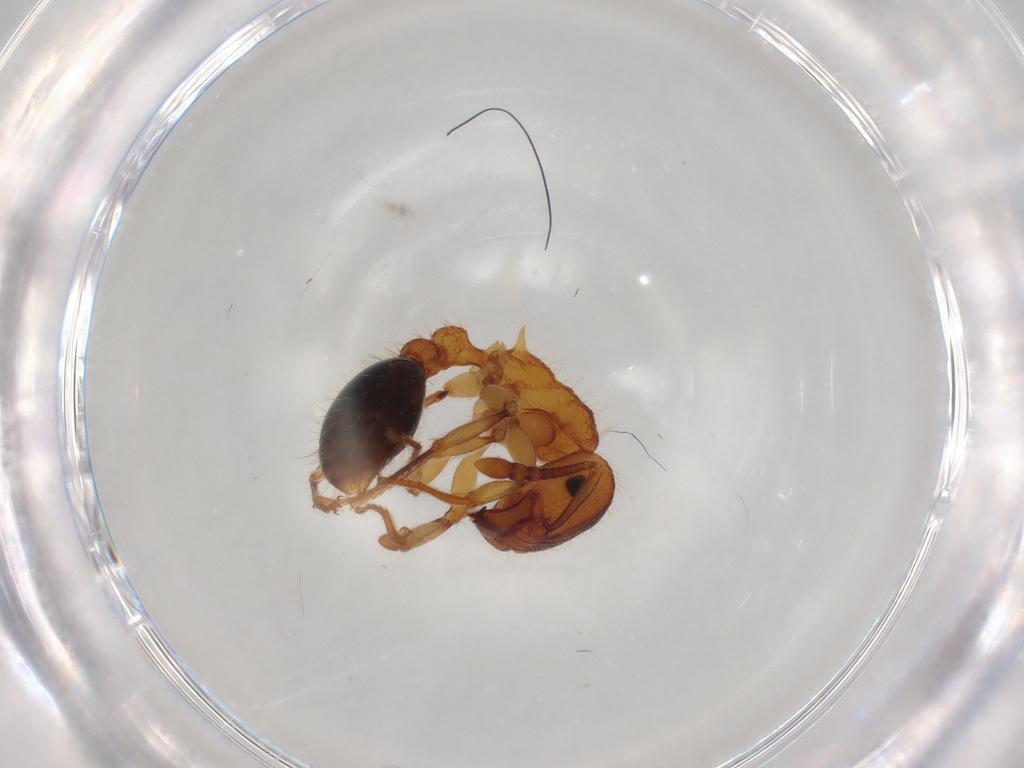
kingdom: Animalia
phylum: Arthropoda
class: Insecta
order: Hymenoptera
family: Formicidae
